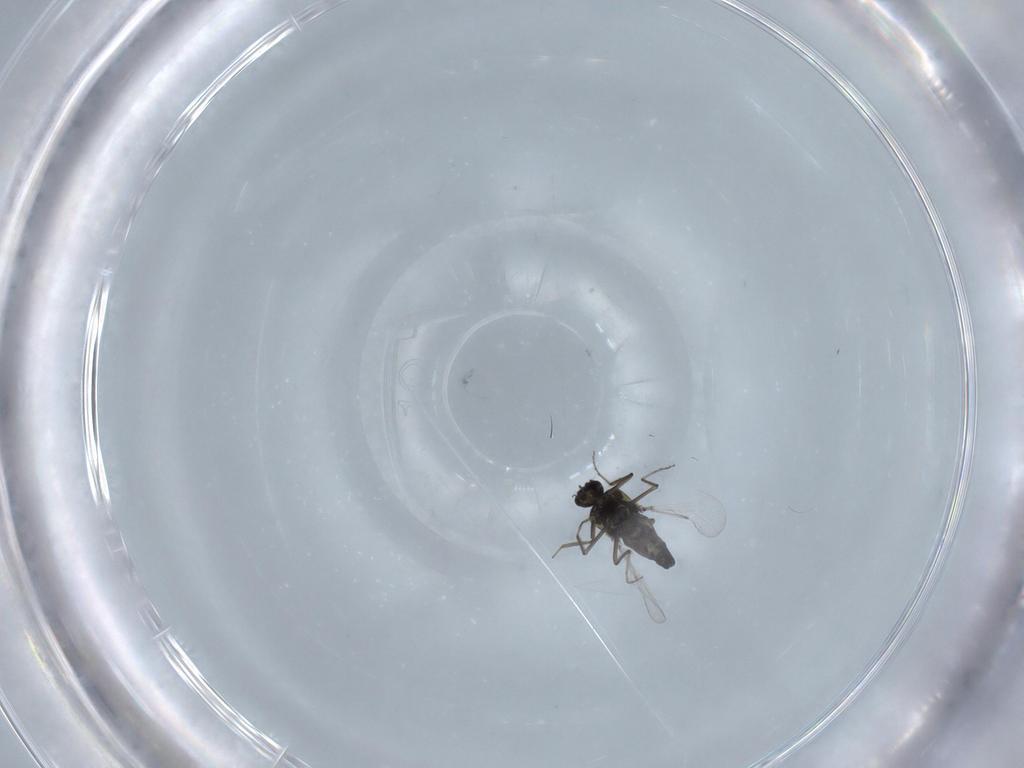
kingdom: Animalia
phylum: Arthropoda
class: Insecta
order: Diptera
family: Ceratopogonidae
